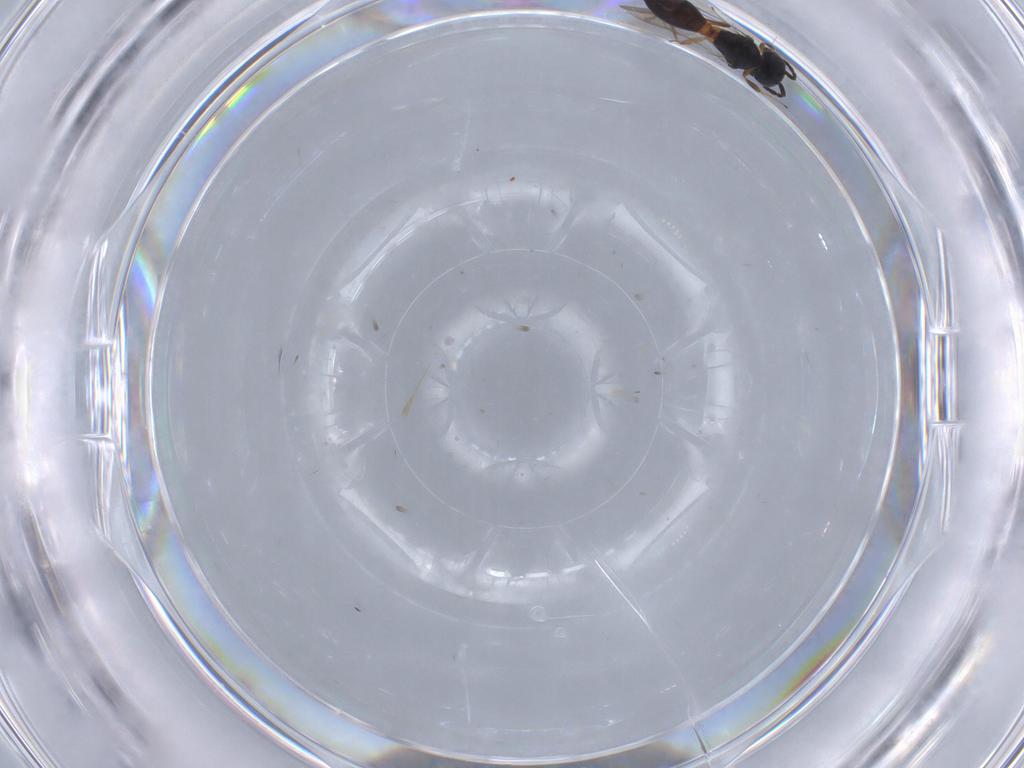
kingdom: Animalia
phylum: Arthropoda
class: Insecta
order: Hymenoptera
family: Scelionidae
